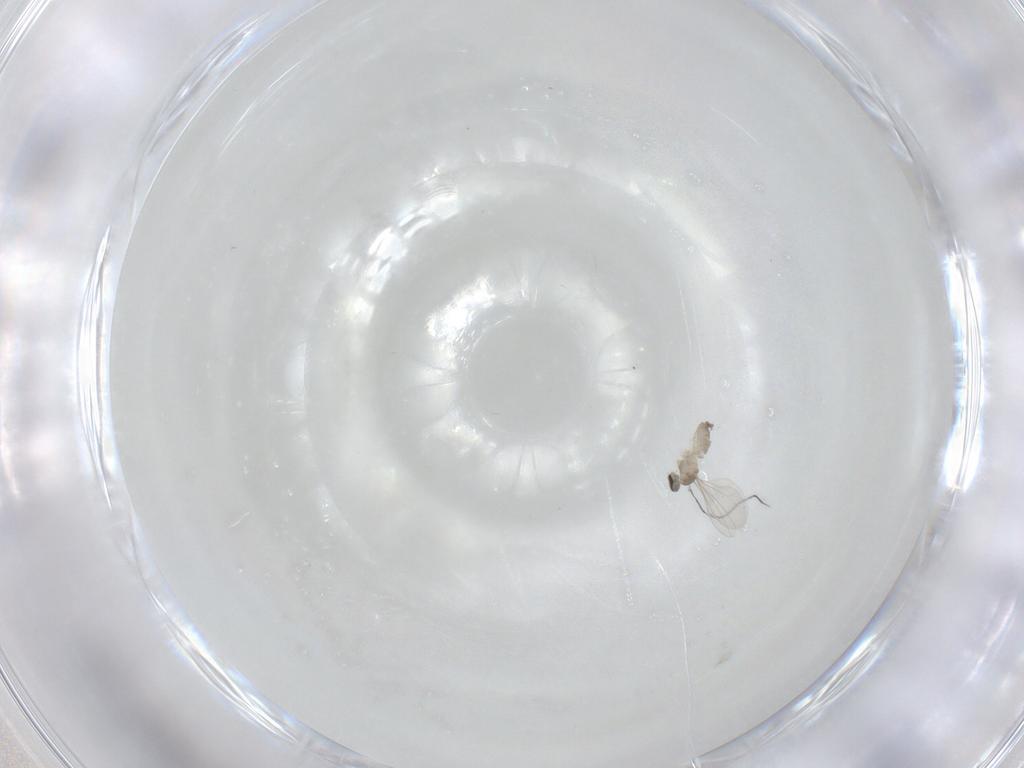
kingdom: Animalia
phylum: Arthropoda
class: Insecta
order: Diptera
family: Cecidomyiidae
